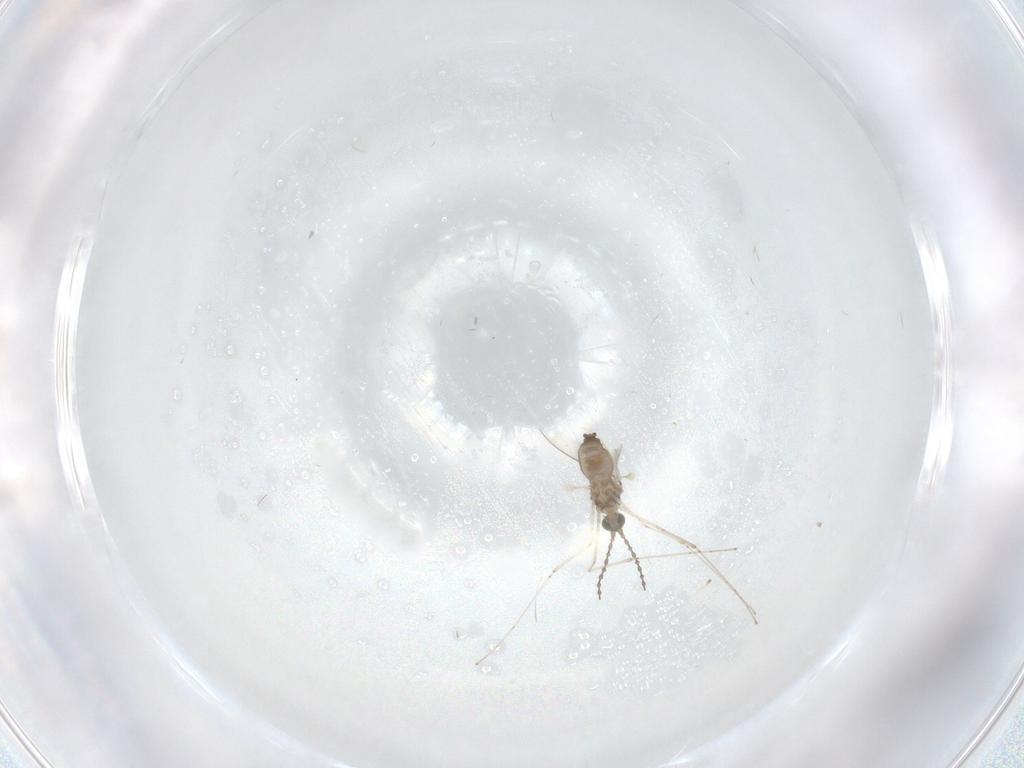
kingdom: Animalia
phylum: Arthropoda
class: Insecta
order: Diptera
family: Cecidomyiidae
